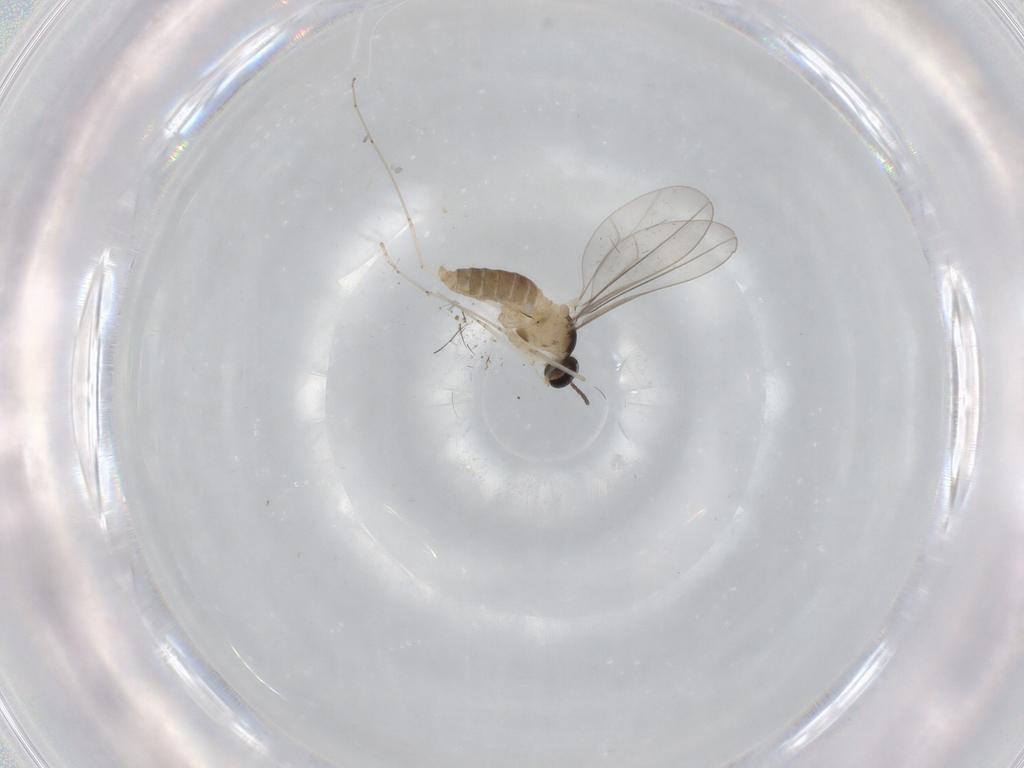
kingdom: Animalia
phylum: Arthropoda
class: Insecta
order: Diptera
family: Cecidomyiidae
